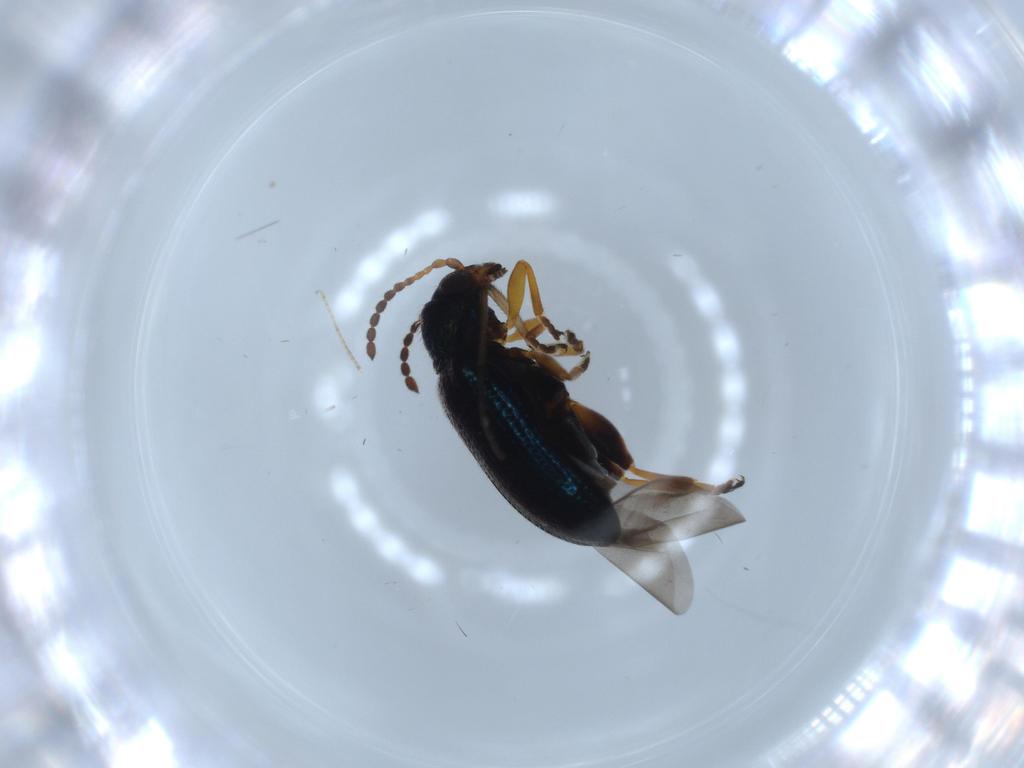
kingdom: Animalia
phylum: Arthropoda
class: Insecta
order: Coleoptera
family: Chrysomelidae
